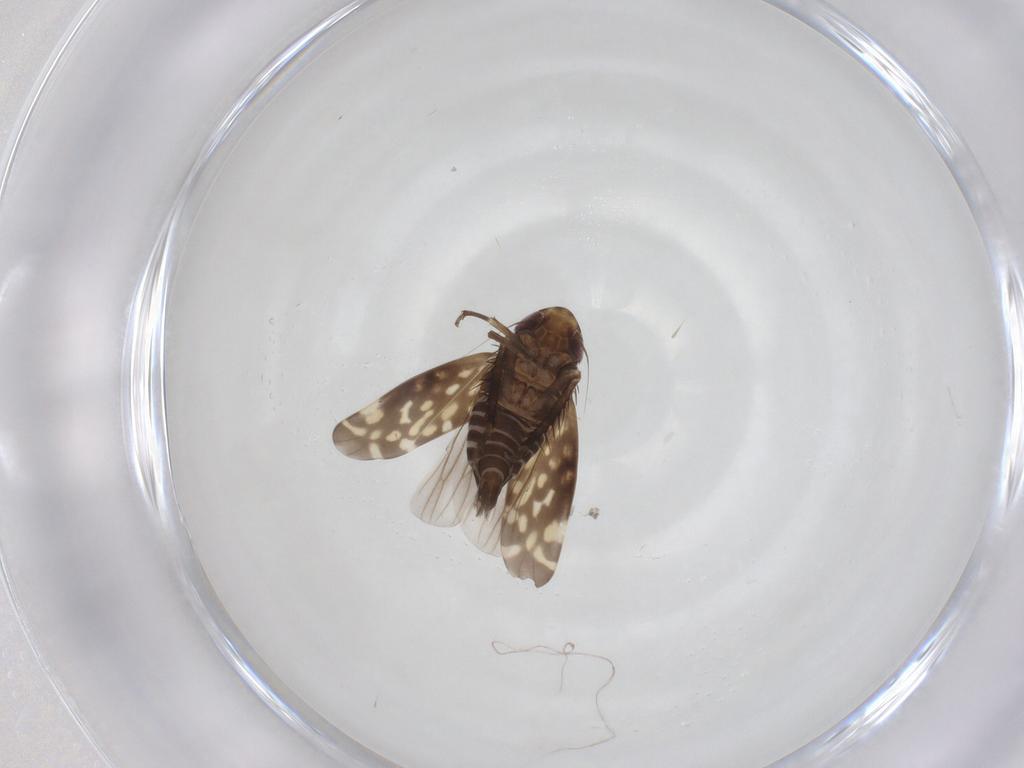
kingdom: Animalia
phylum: Arthropoda
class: Insecta
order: Hemiptera
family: Cicadellidae
